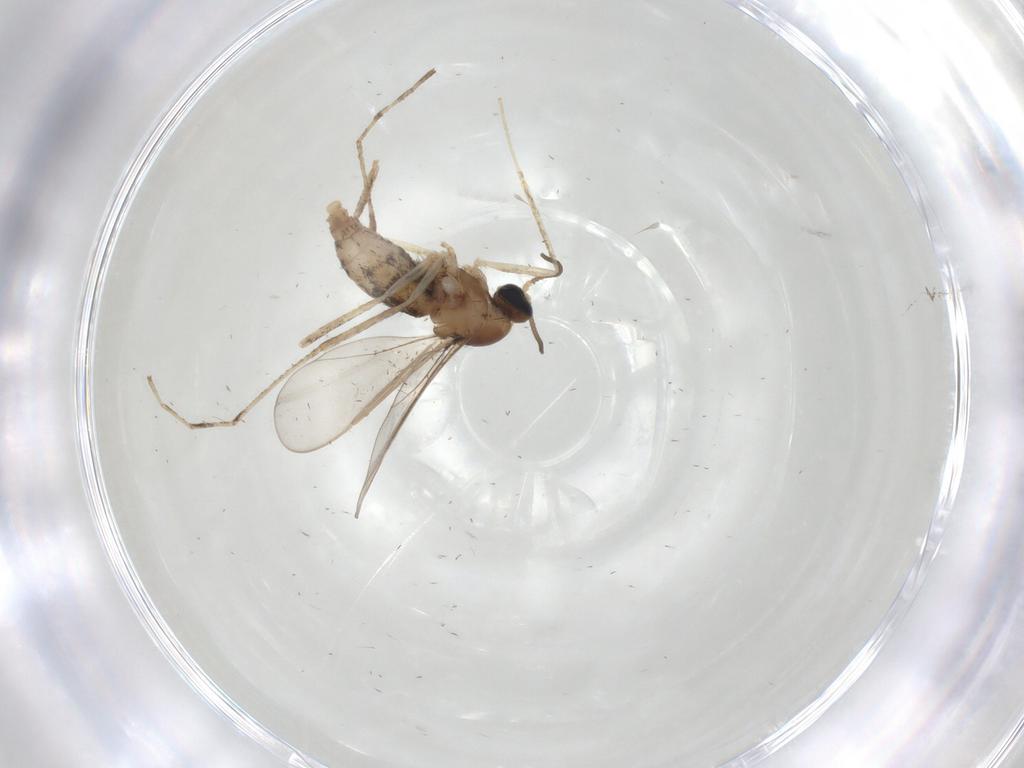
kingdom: Animalia
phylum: Arthropoda
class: Insecta
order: Diptera
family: Cecidomyiidae
